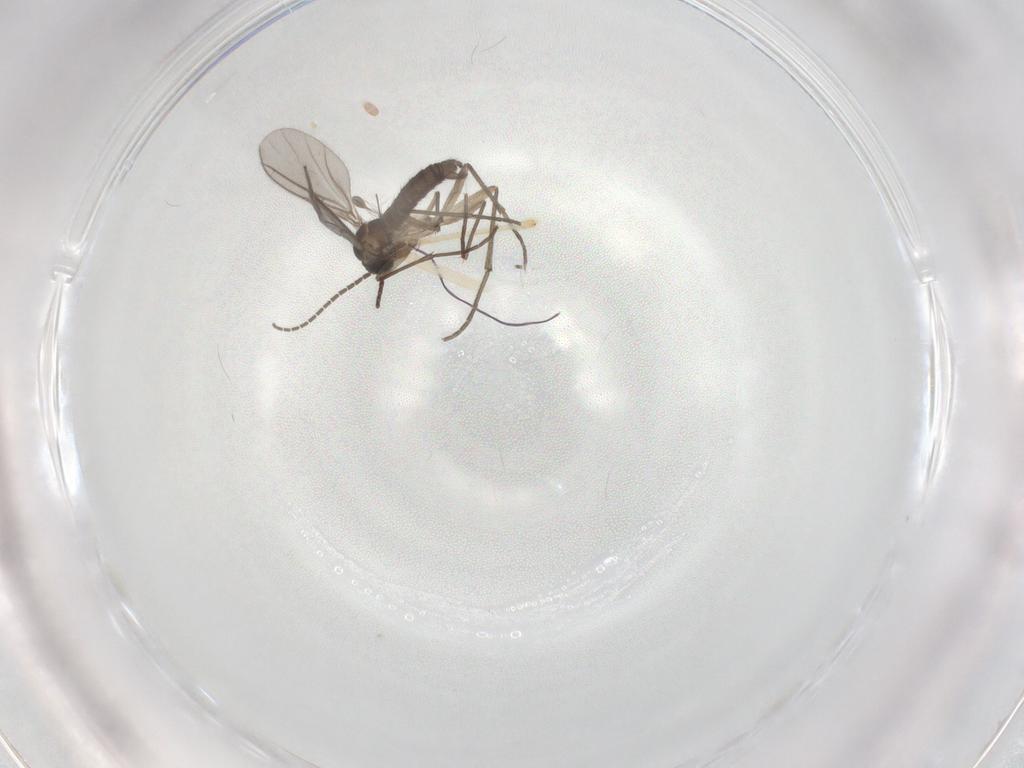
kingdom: Animalia
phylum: Arthropoda
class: Insecta
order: Diptera
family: Chironomidae
